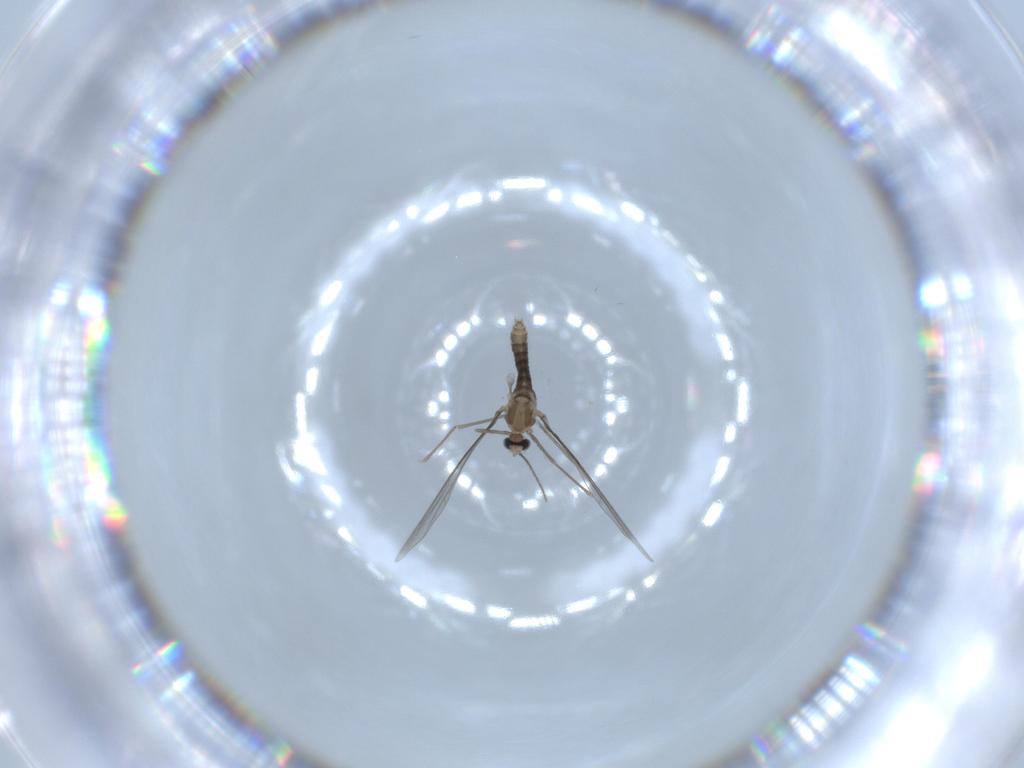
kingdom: Animalia
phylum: Arthropoda
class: Insecta
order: Diptera
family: Cecidomyiidae
